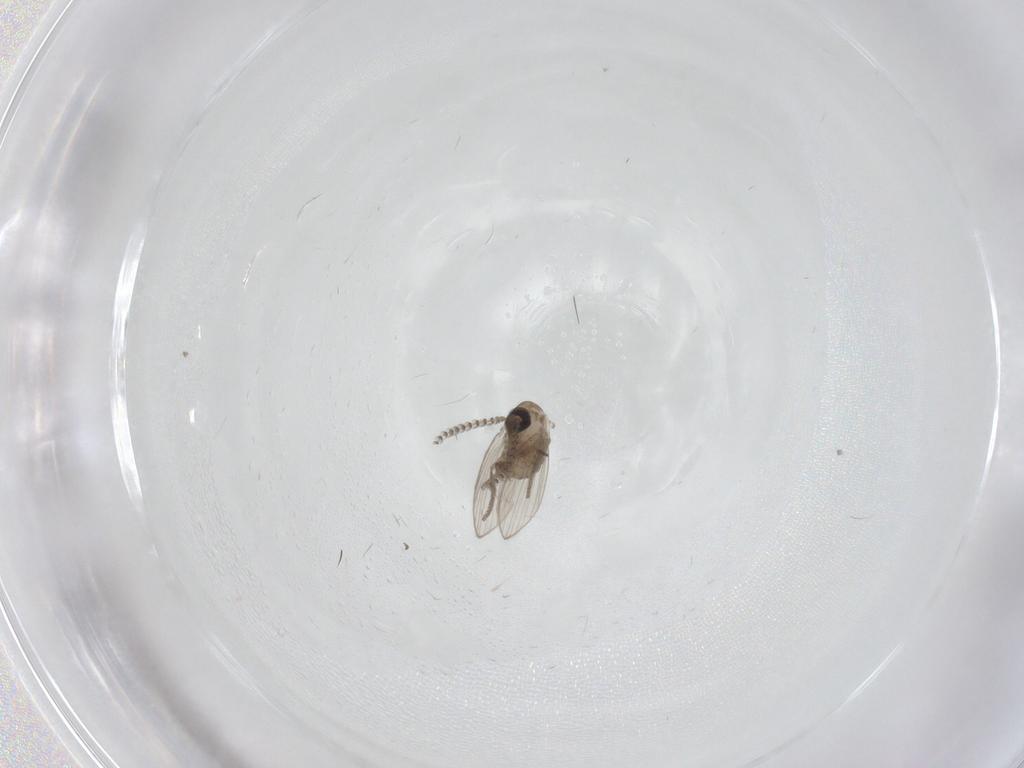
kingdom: Animalia
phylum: Arthropoda
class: Insecta
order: Diptera
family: Psychodidae
